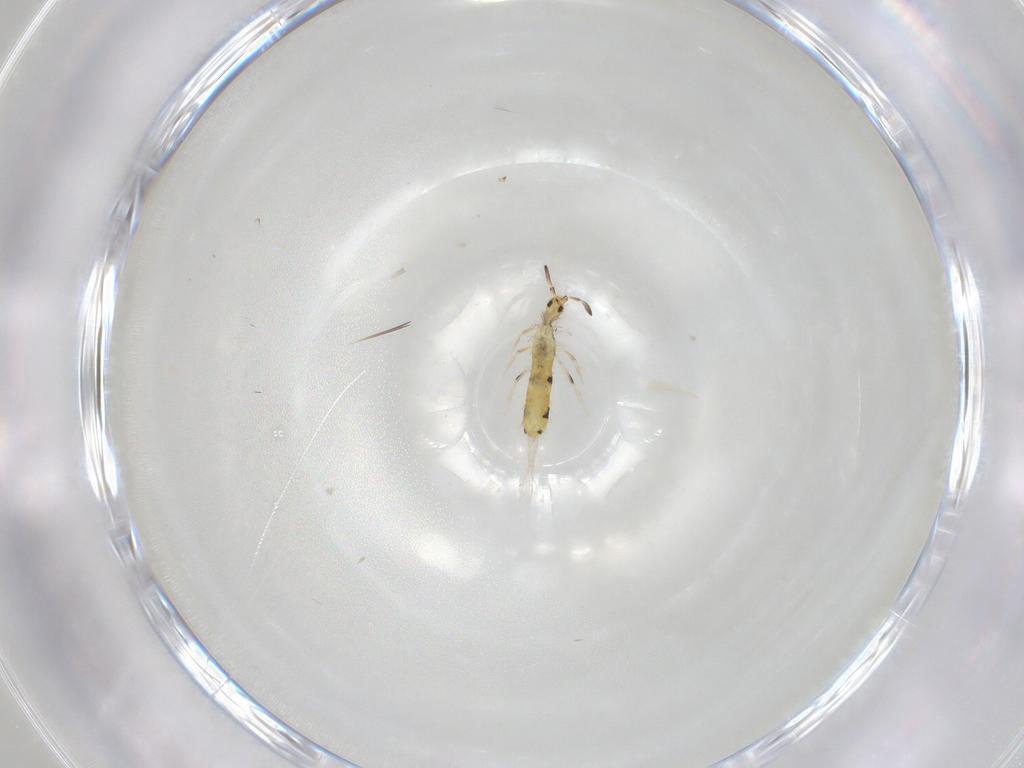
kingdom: Animalia
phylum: Arthropoda
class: Collembola
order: Entomobryomorpha
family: Entomobryidae
